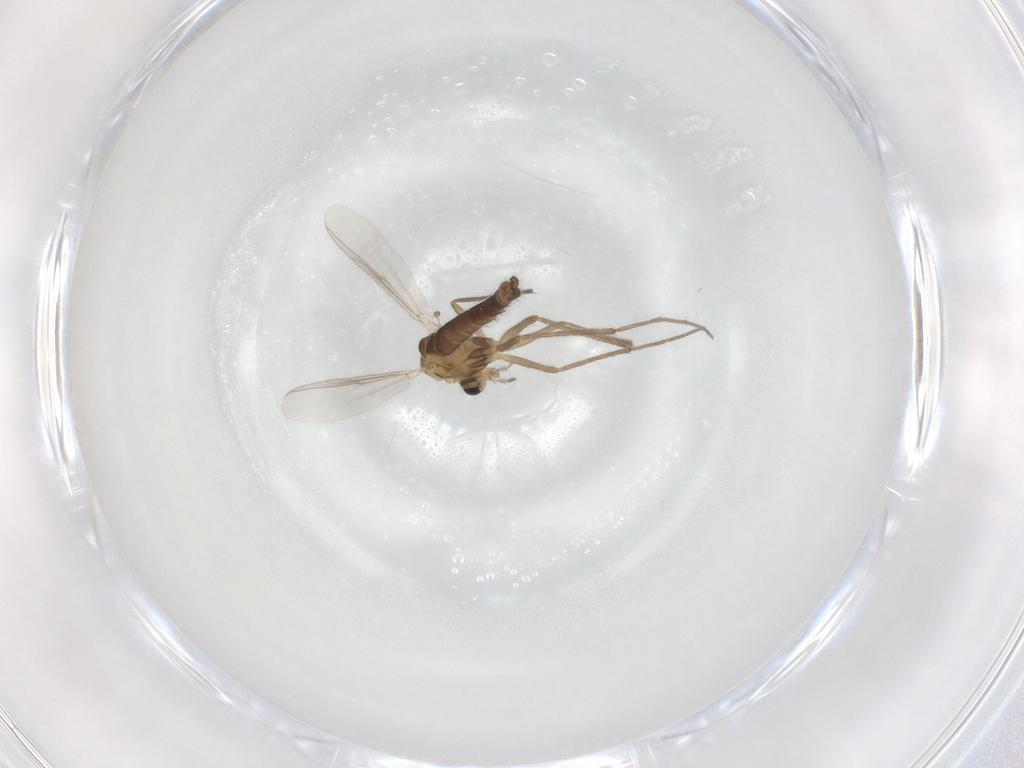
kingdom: Animalia
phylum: Arthropoda
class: Insecta
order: Diptera
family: Chironomidae
